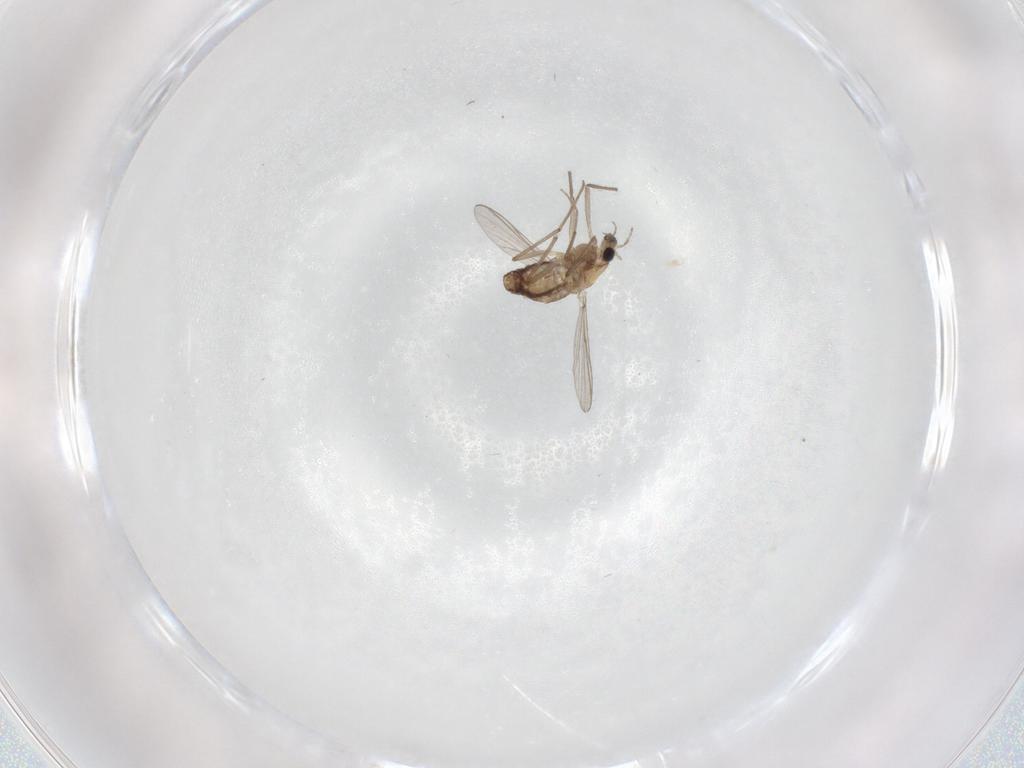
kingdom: Animalia
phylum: Arthropoda
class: Insecta
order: Diptera
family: Chironomidae
